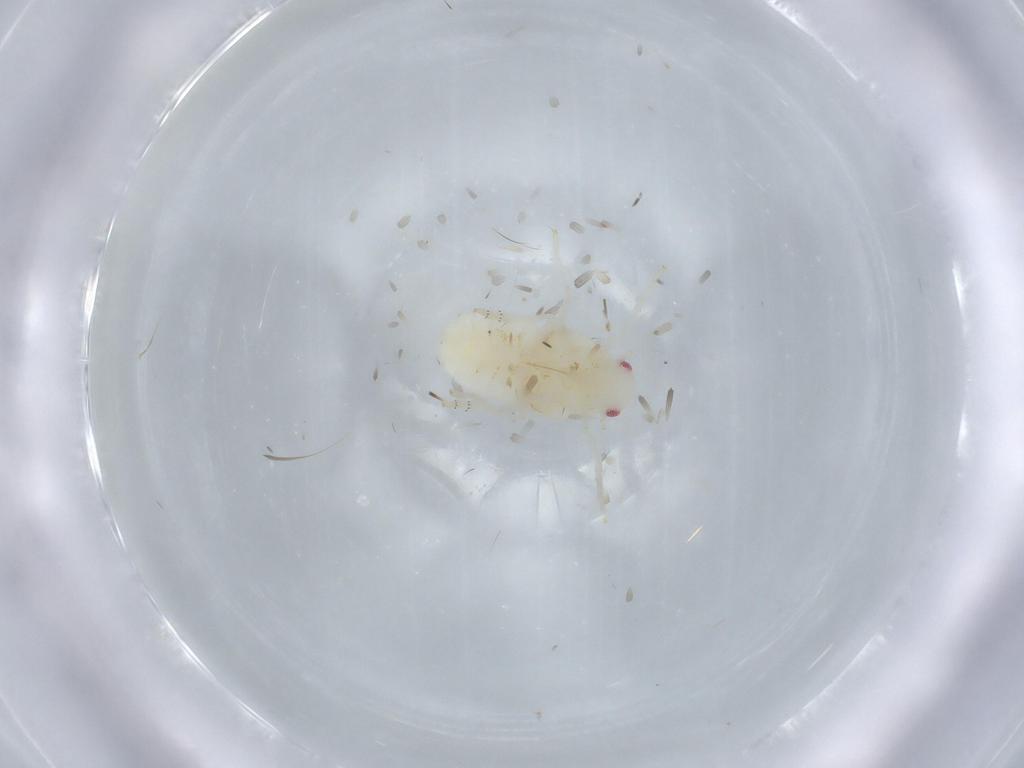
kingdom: Animalia
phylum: Arthropoda
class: Insecta
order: Hemiptera
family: Flatidae
